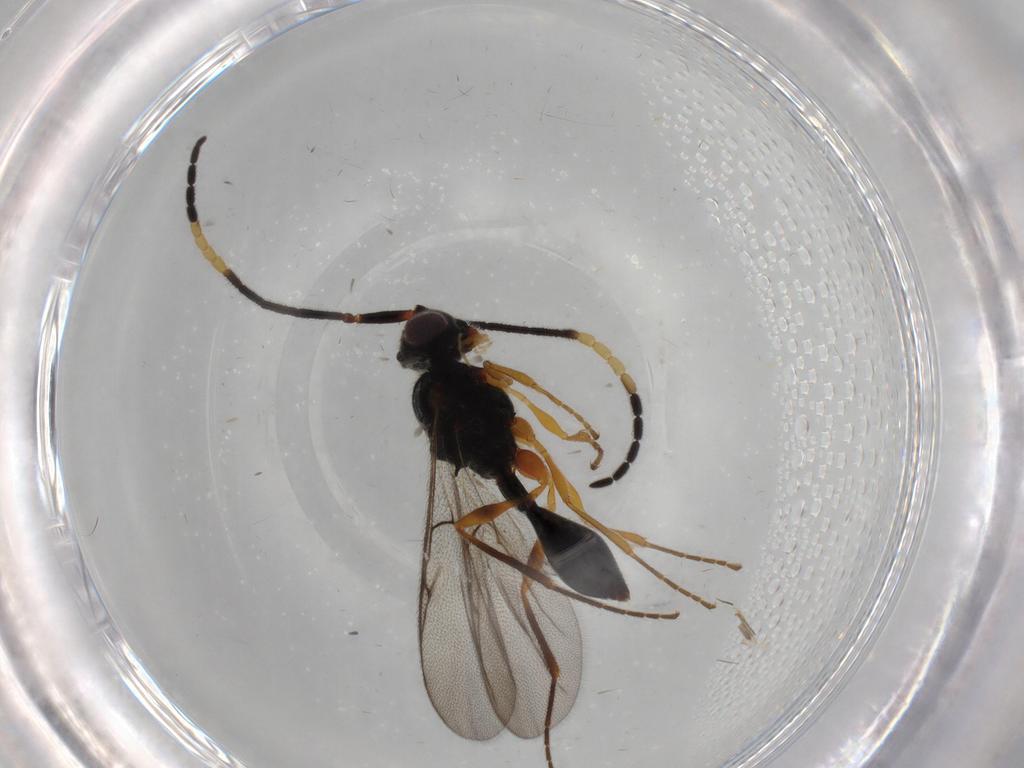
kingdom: Animalia
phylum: Arthropoda
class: Insecta
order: Hymenoptera
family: Diapriidae
